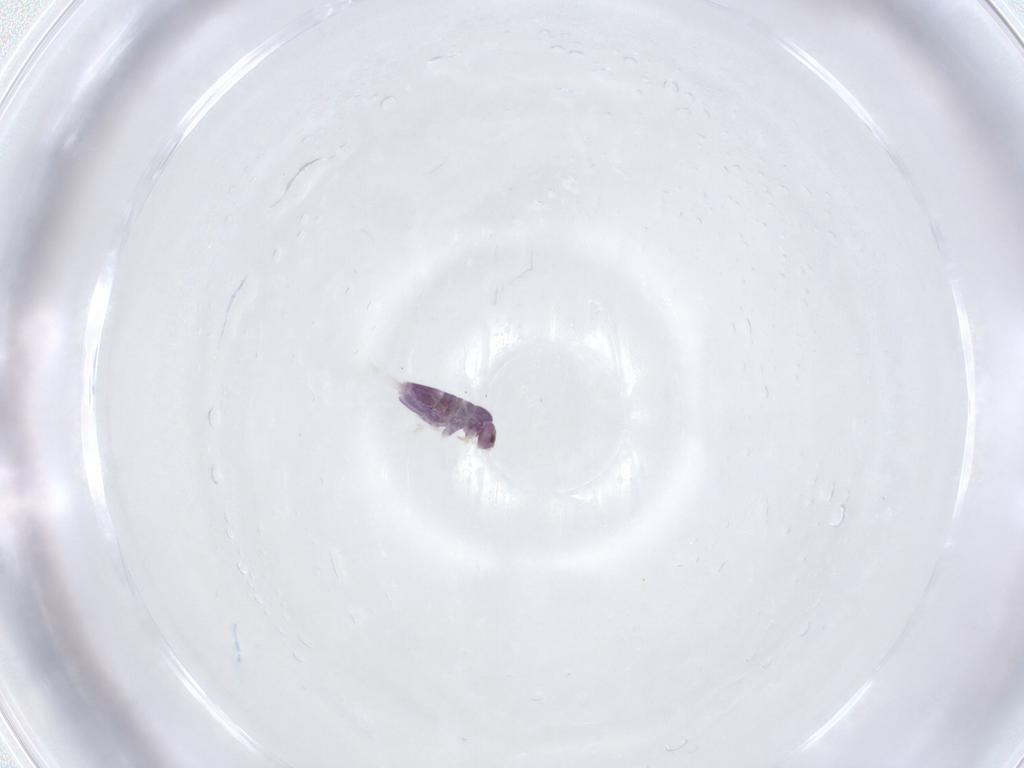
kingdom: Animalia
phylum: Arthropoda
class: Collembola
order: Entomobryomorpha
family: Entomobryidae
